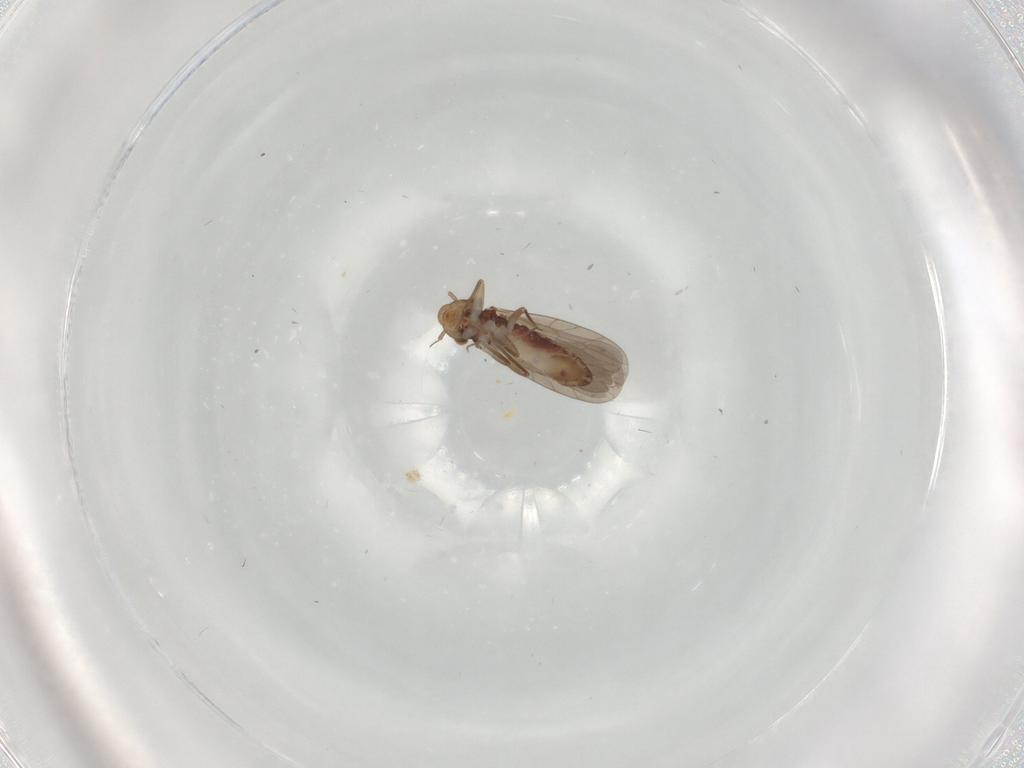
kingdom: Animalia
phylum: Arthropoda
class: Insecta
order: Psocodea
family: Lepidopsocidae
